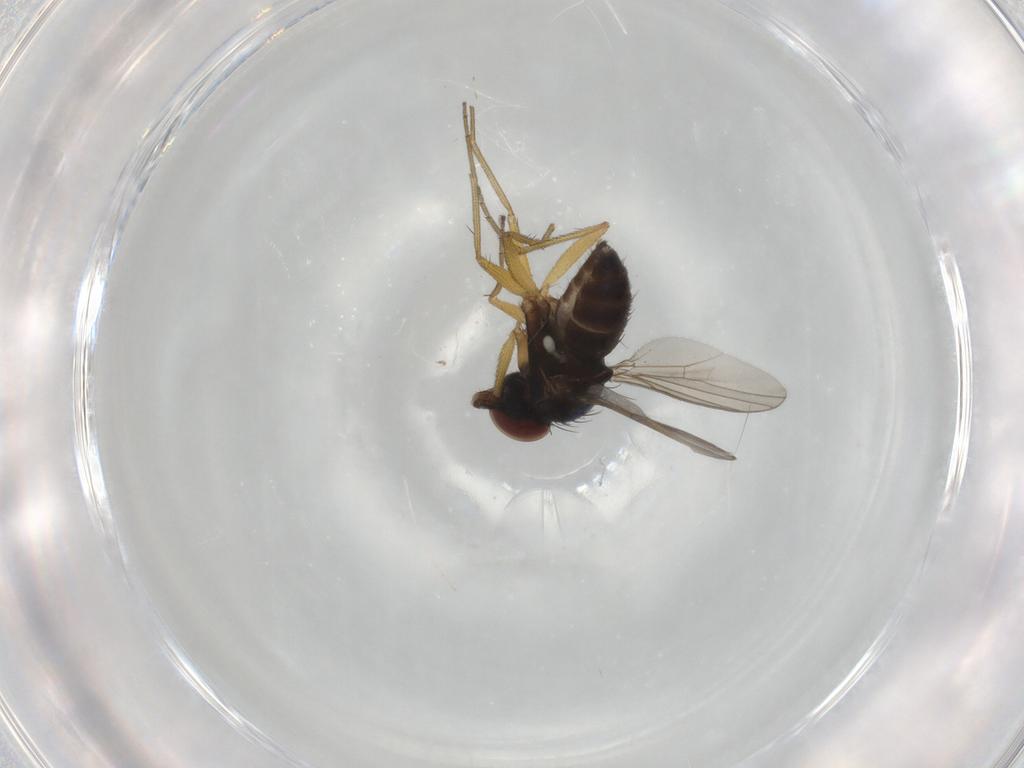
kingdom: Animalia
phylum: Arthropoda
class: Insecta
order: Diptera
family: Dolichopodidae
